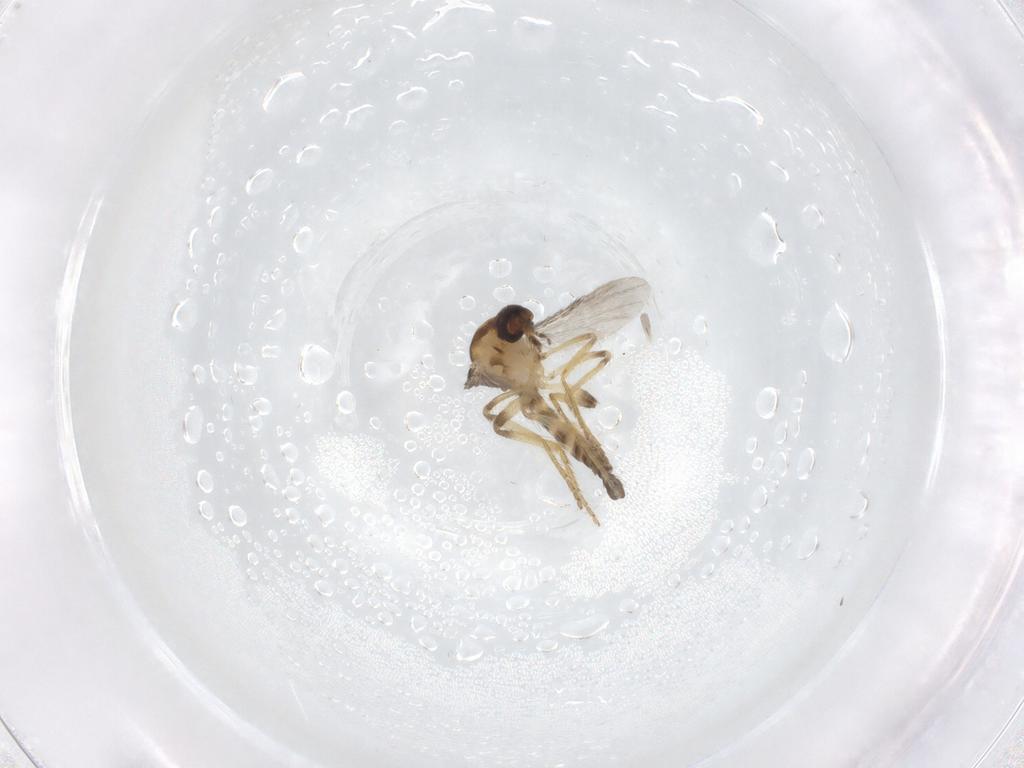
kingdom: Animalia
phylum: Arthropoda
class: Insecta
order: Diptera
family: Ceratopogonidae
